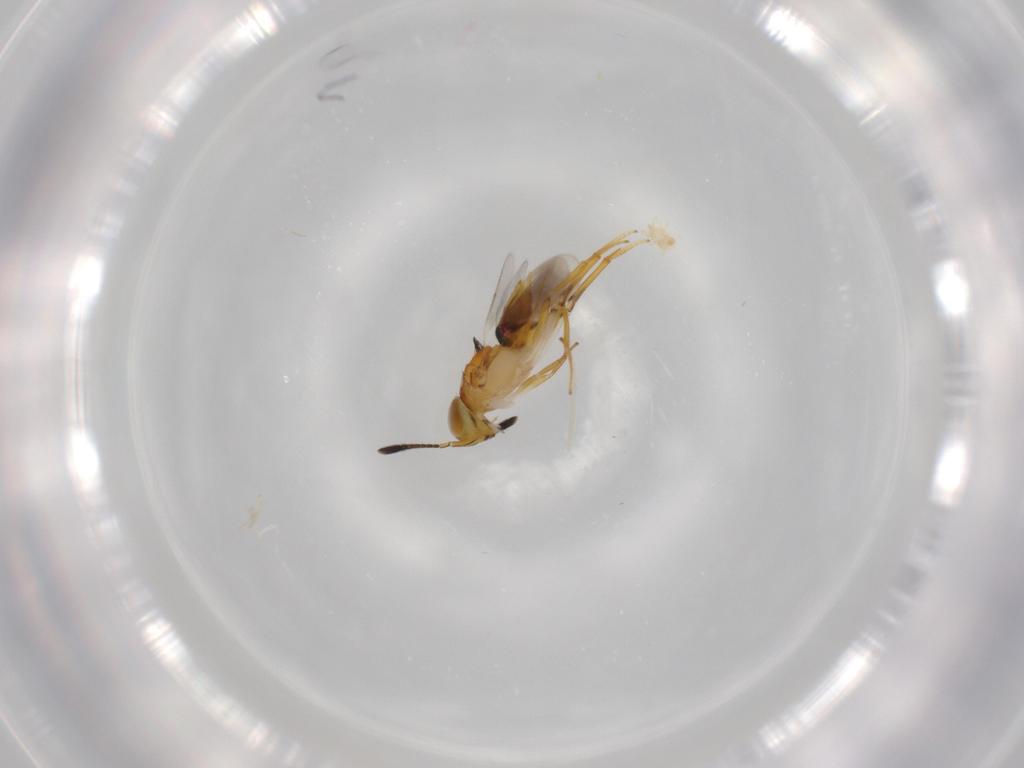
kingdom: Animalia
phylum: Arthropoda
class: Insecta
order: Hymenoptera
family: Encyrtidae
